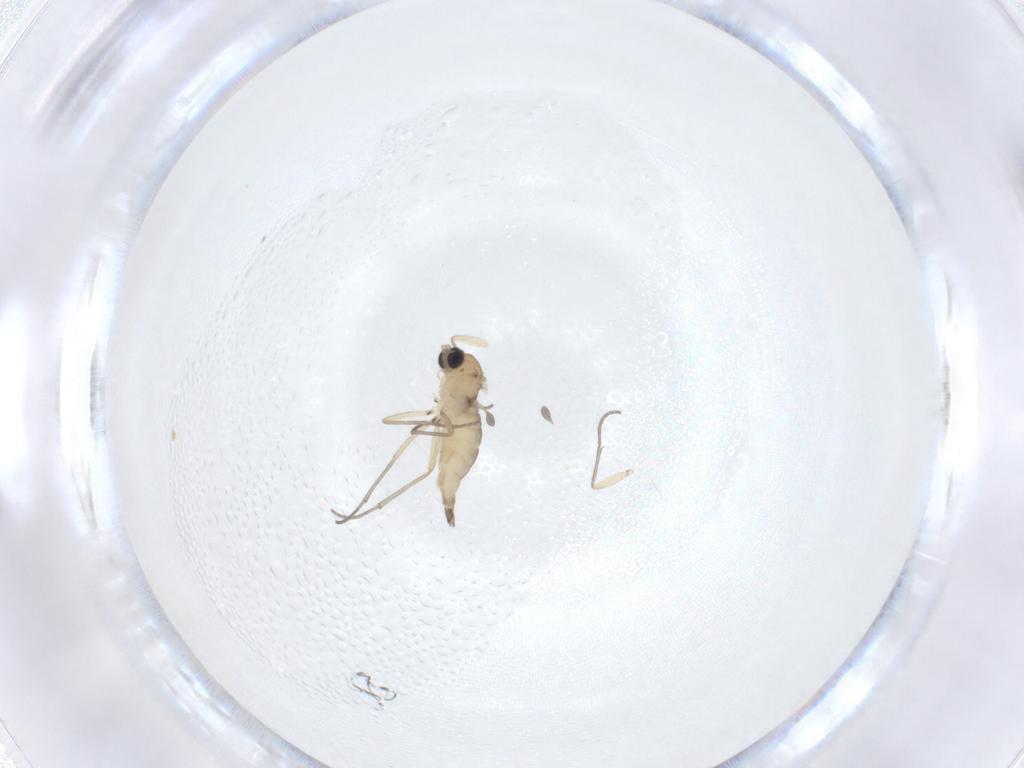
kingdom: Animalia
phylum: Arthropoda
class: Insecta
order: Diptera
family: Sciaridae
